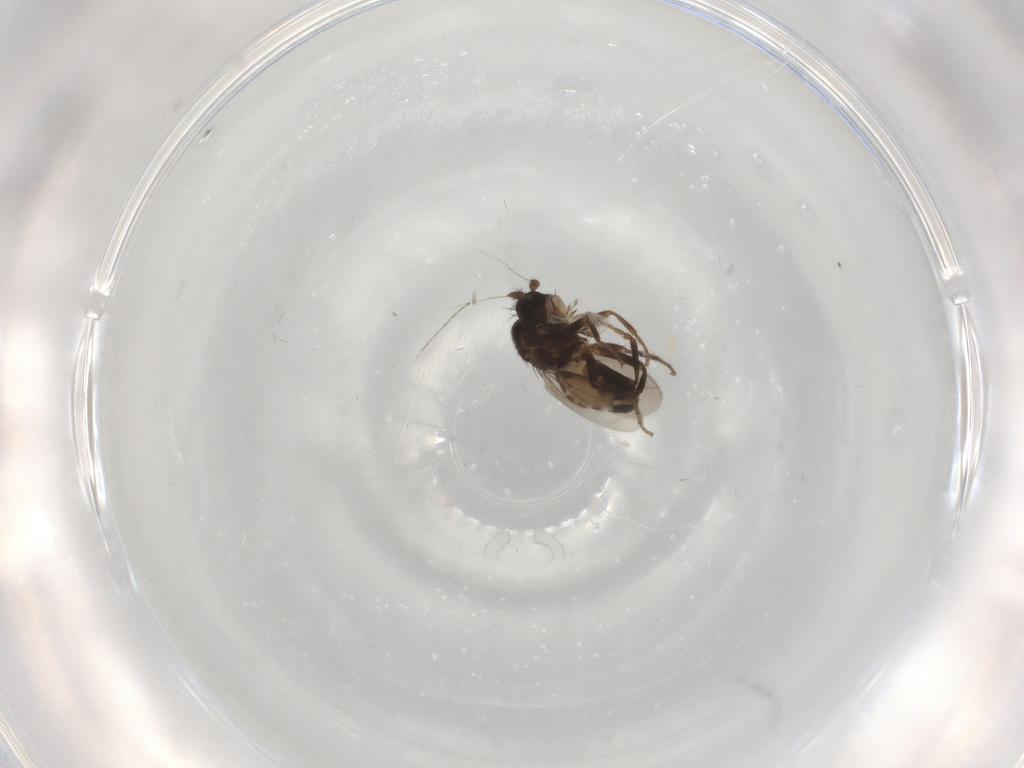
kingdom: Animalia
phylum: Arthropoda
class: Insecta
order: Diptera
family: Sphaeroceridae
